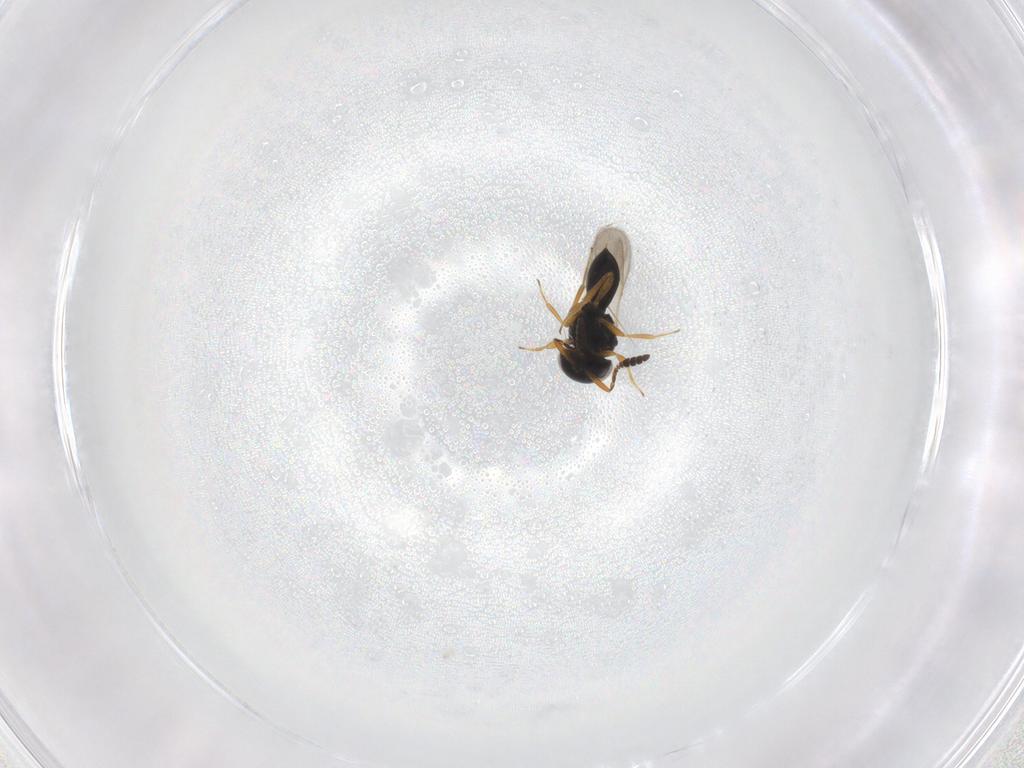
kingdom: Animalia
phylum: Arthropoda
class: Insecta
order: Hymenoptera
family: Scelionidae
